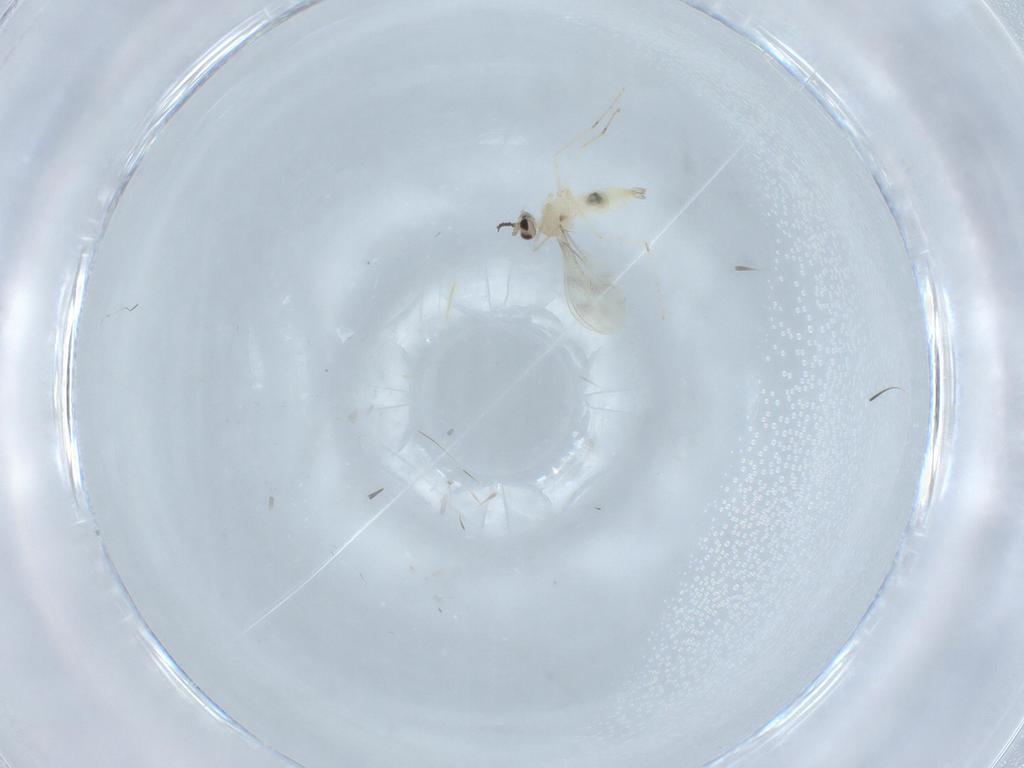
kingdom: Animalia
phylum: Arthropoda
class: Insecta
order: Diptera
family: Cecidomyiidae
